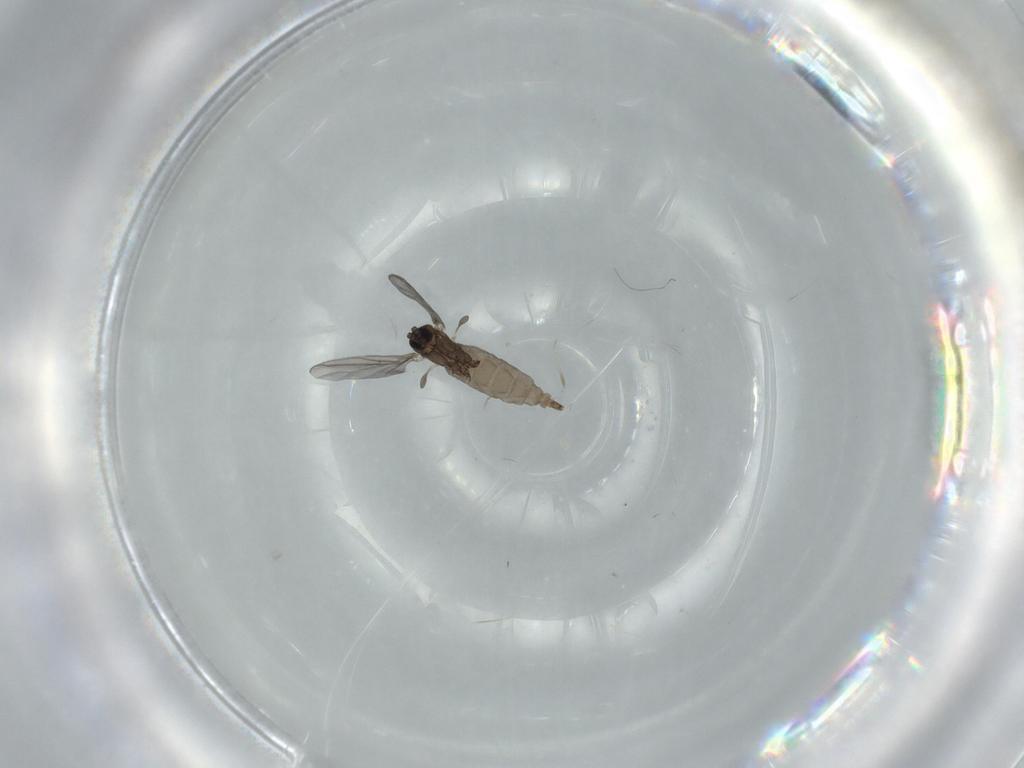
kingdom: Animalia
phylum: Arthropoda
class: Insecta
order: Diptera
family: Sciaridae
